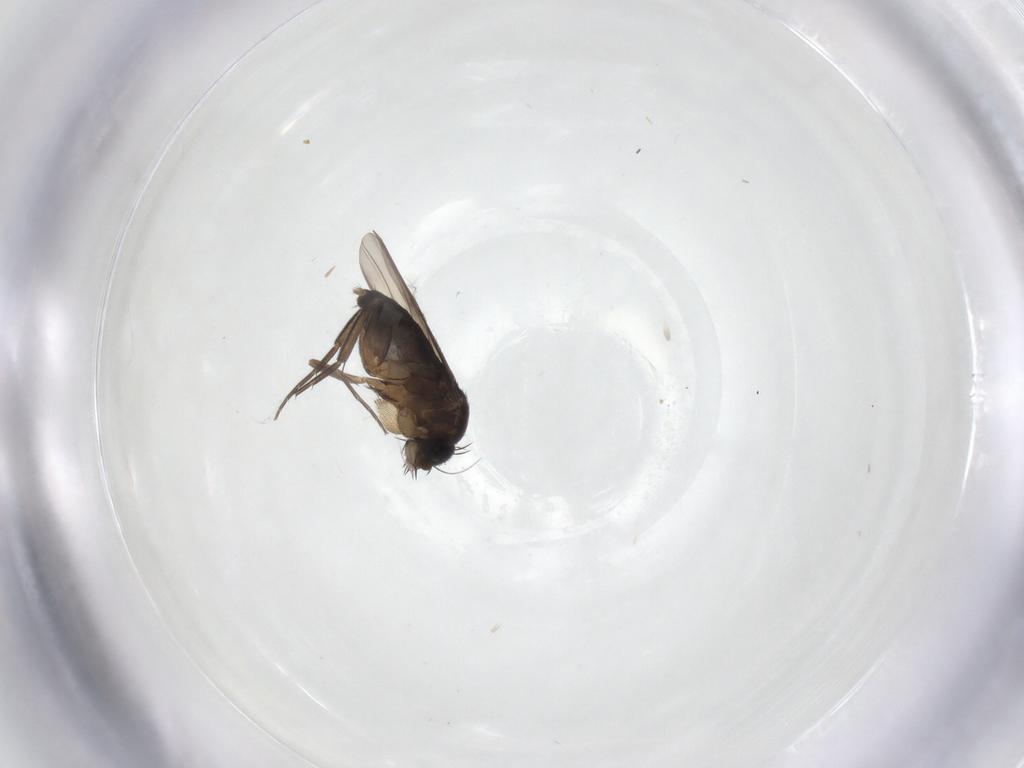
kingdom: Animalia
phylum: Arthropoda
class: Insecta
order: Diptera
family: Phoridae
